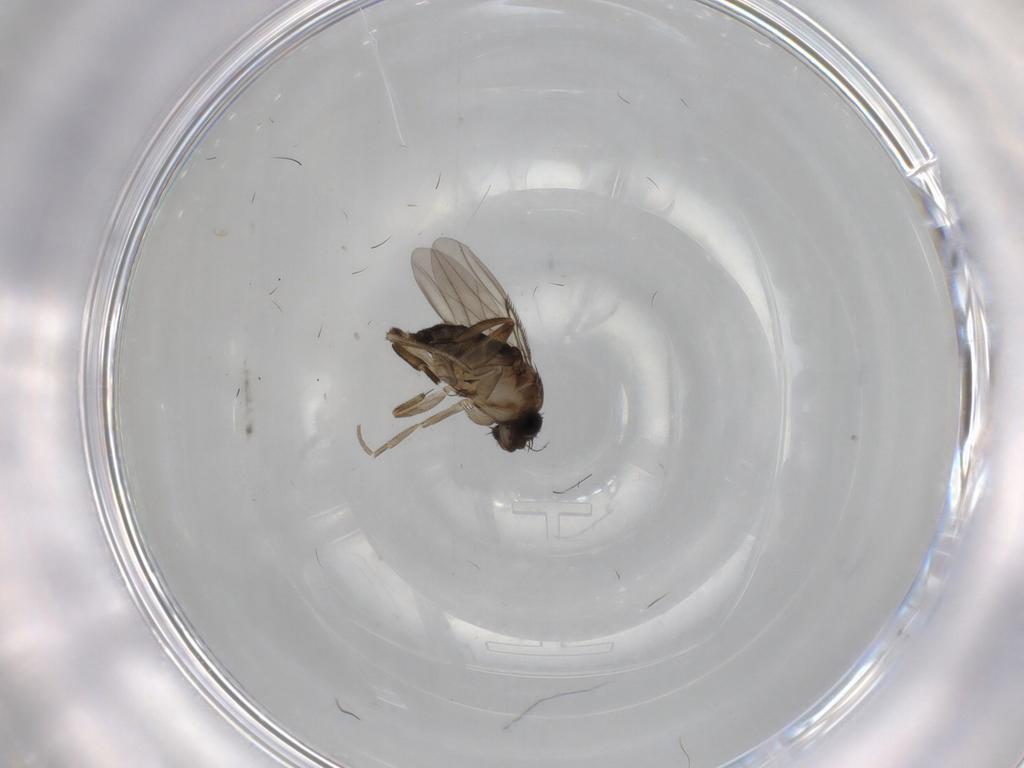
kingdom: Animalia
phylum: Arthropoda
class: Insecta
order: Diptera
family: Phoridae
